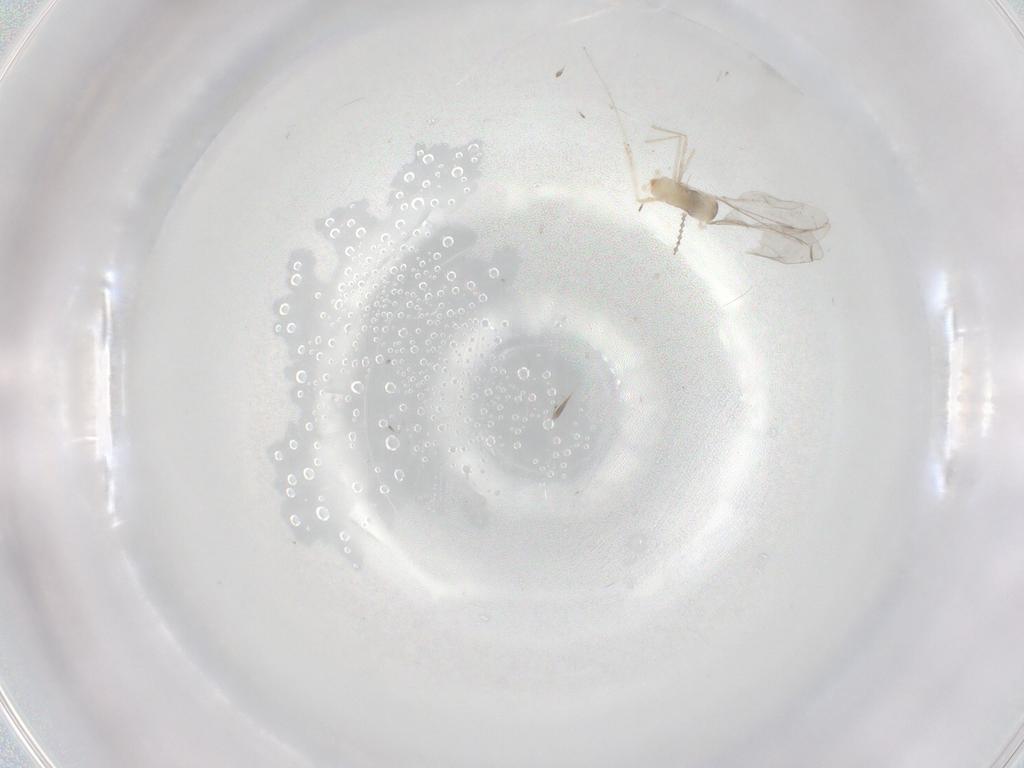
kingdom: Animalia
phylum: Arthropoda
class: Insecta
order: Diptera
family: Cecidomyiidae
